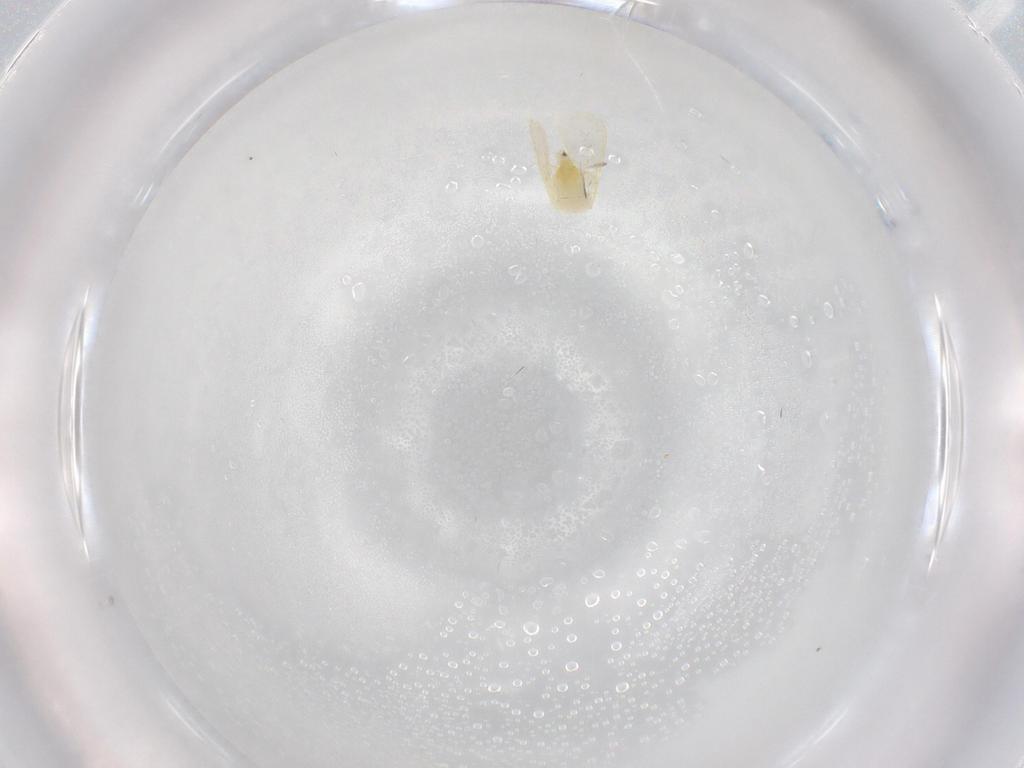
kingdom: Animalia
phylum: Arthropoda
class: Insecta
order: Hemiptera
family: Aleyrodidae
